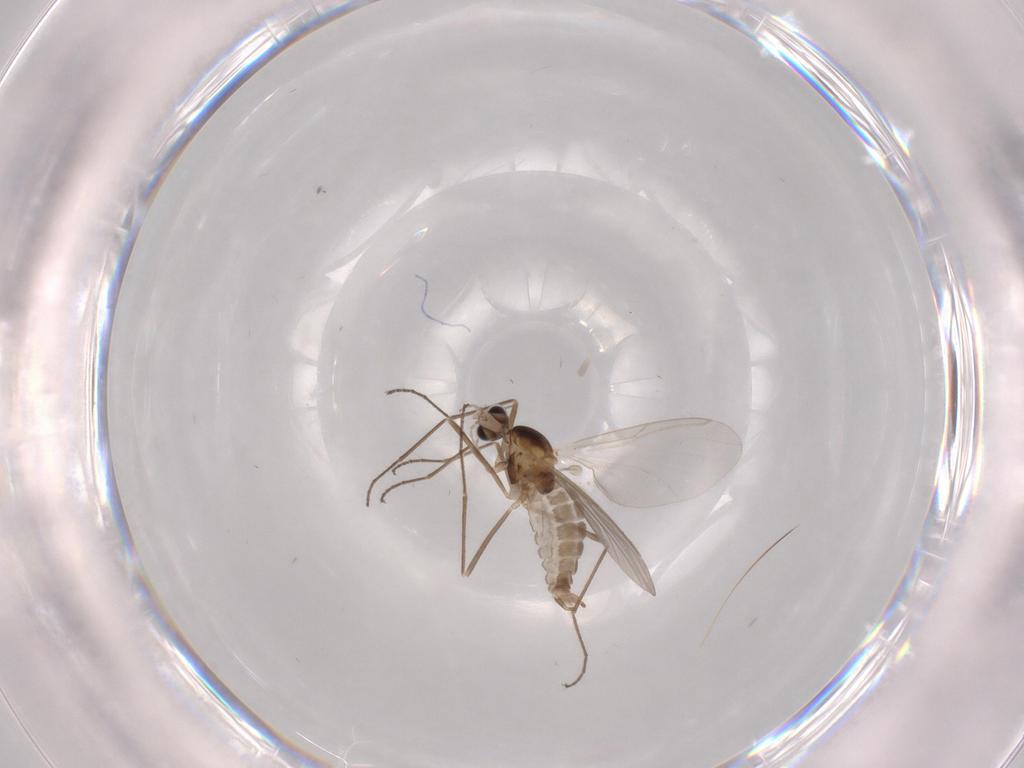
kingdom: Animalia
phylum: Arthropoda
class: Insecta
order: Diptera
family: Cecidomyiidae
